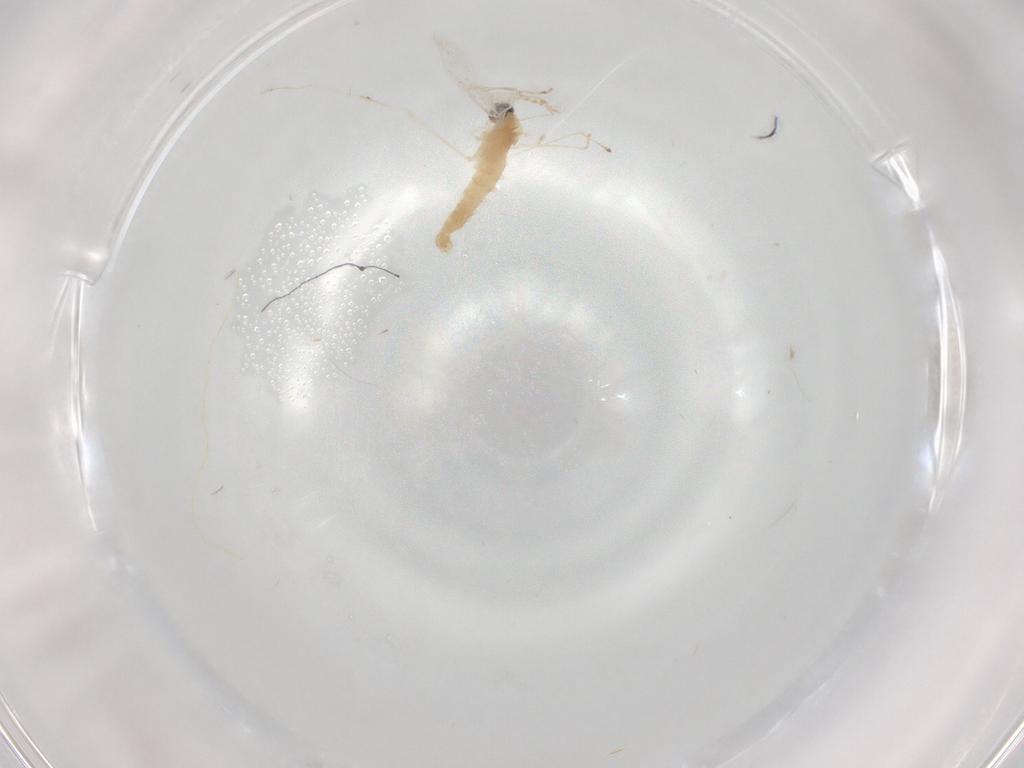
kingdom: Animalia
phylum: Arthropoda
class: Insecta
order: Diptera
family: Cecidomyiidae
